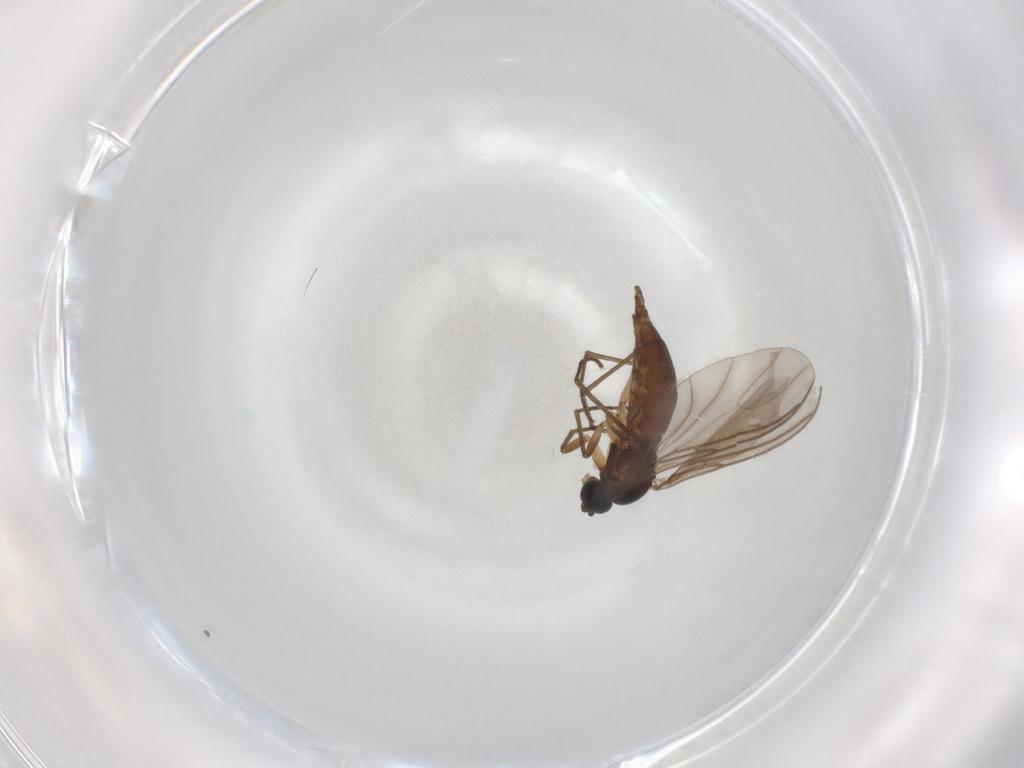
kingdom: Animalia
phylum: Arthropoda
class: Insecta
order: Diptera
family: Sciaridae
